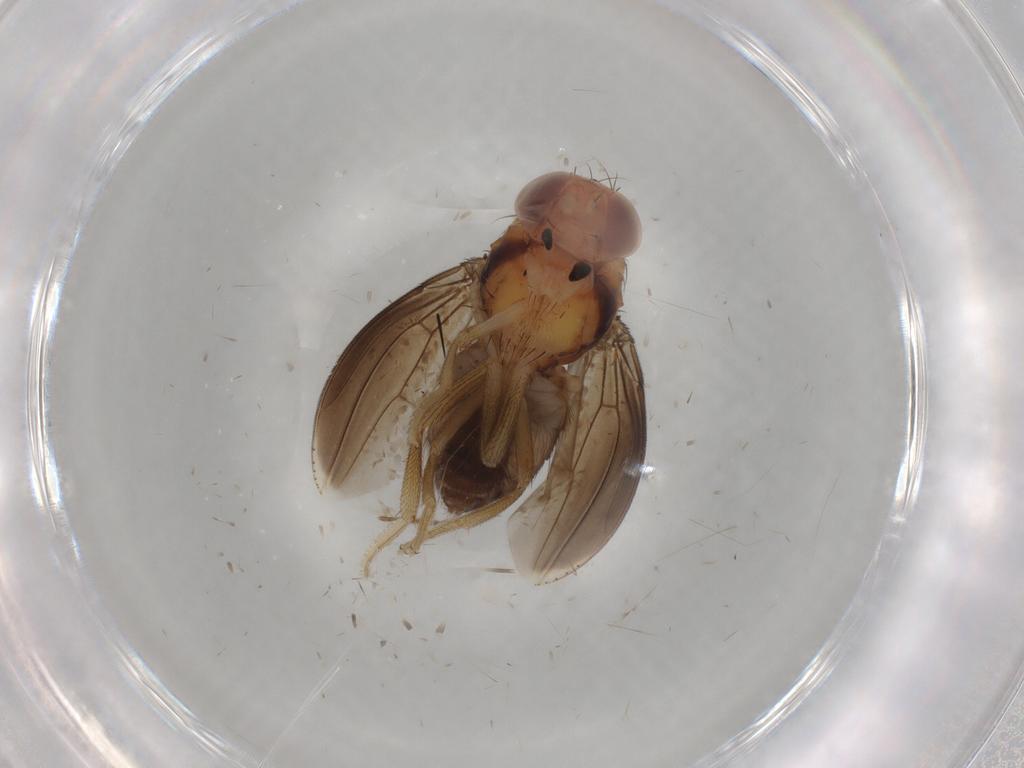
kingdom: Animalia
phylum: Arthropoda
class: Insecta
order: Diptera
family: Drosophilidae
